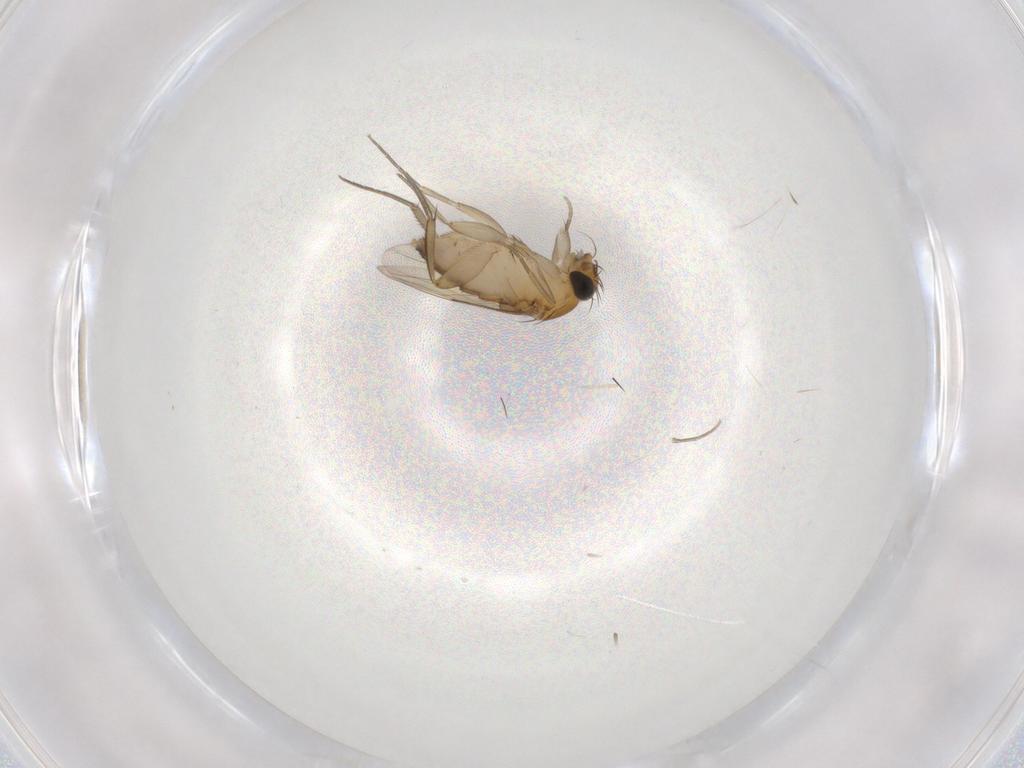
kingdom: Animalia
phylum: Arthropoda
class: Insecta
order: Diptera
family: Phoridae
